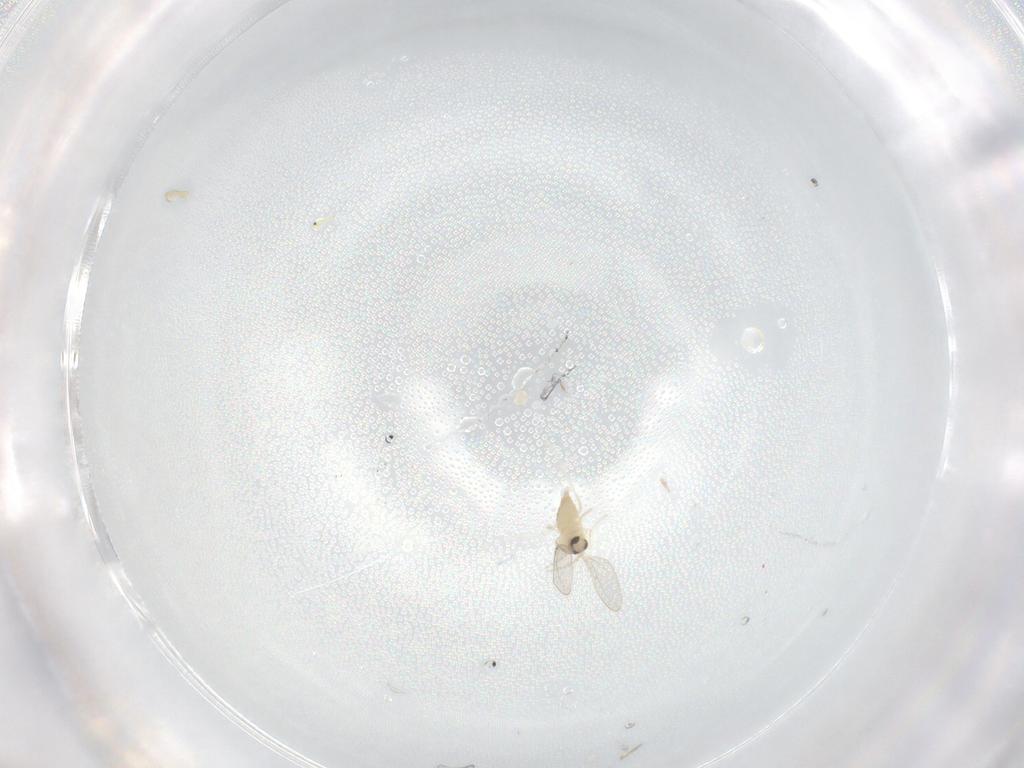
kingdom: Animalia
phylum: Arthropoda
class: Insecta
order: Diptera
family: Cecidomyiidae
